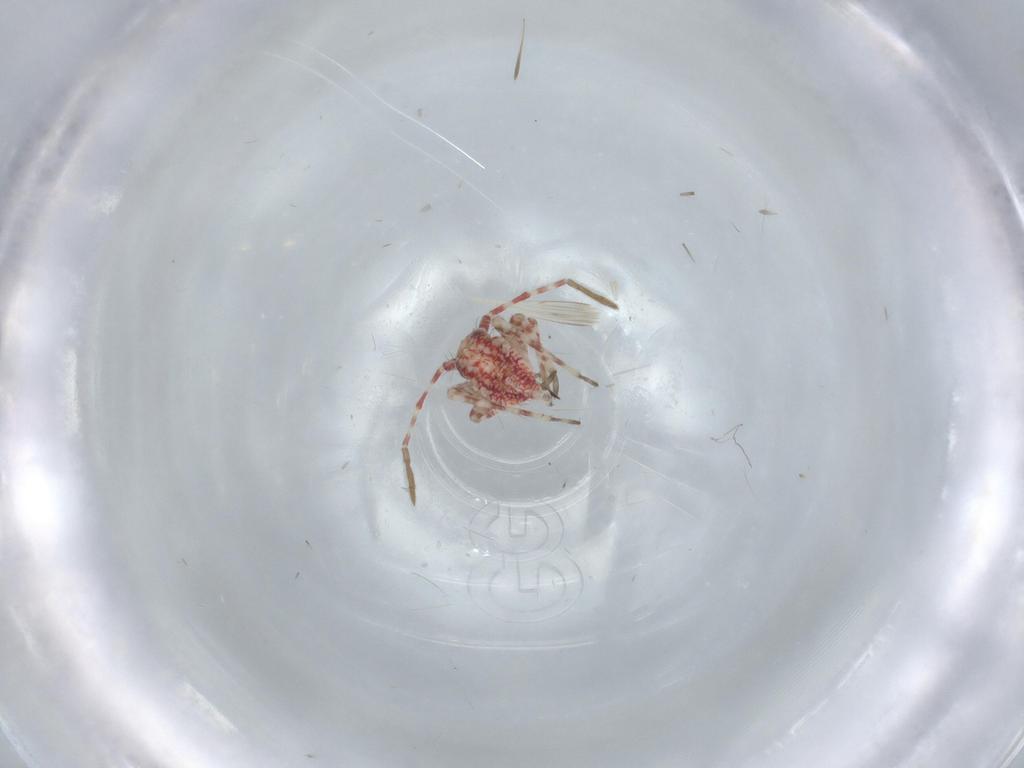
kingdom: Animalia
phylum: Arthropoda
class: Insecta
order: Hemiptera
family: Miridae
